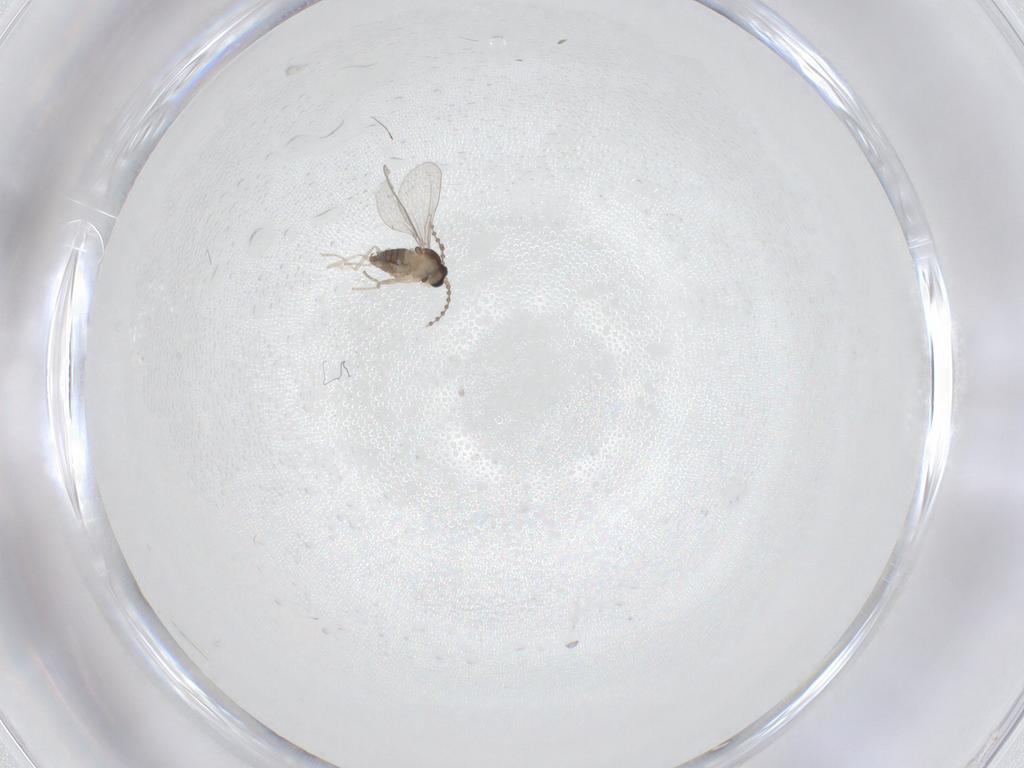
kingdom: Animalia
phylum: Arthropoda
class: Insecta
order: Diptera
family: Cecidomyiidae
